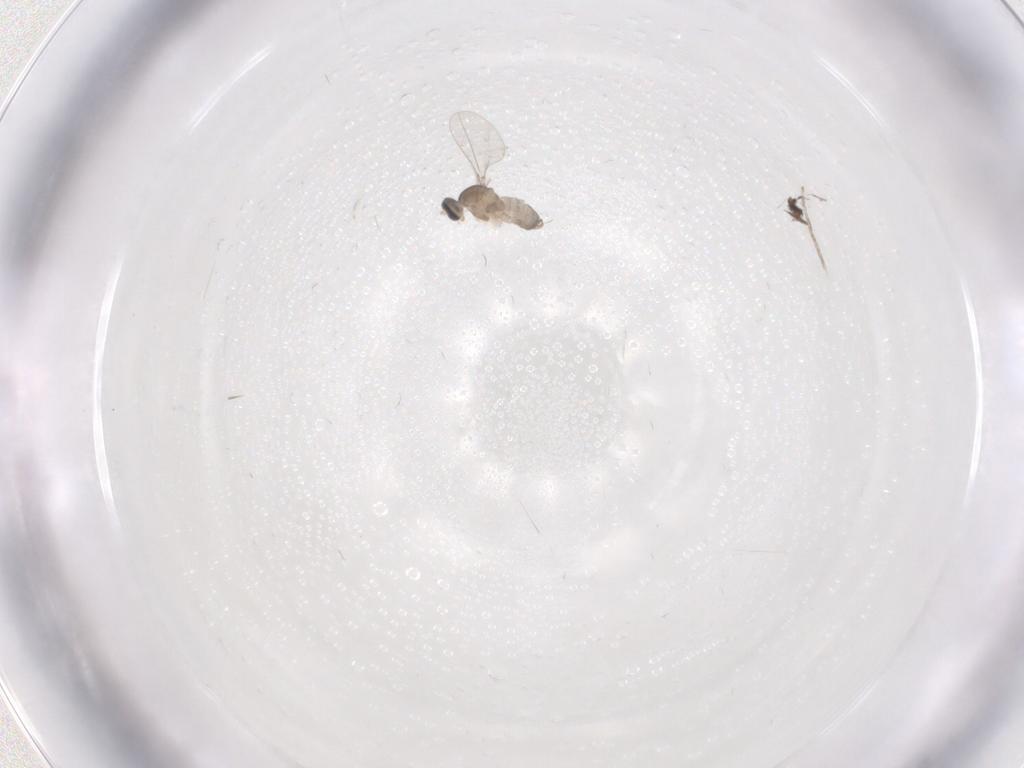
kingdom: Animalia
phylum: Arthropoda
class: Insecta
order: Diptera
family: Cecidomyiidae
